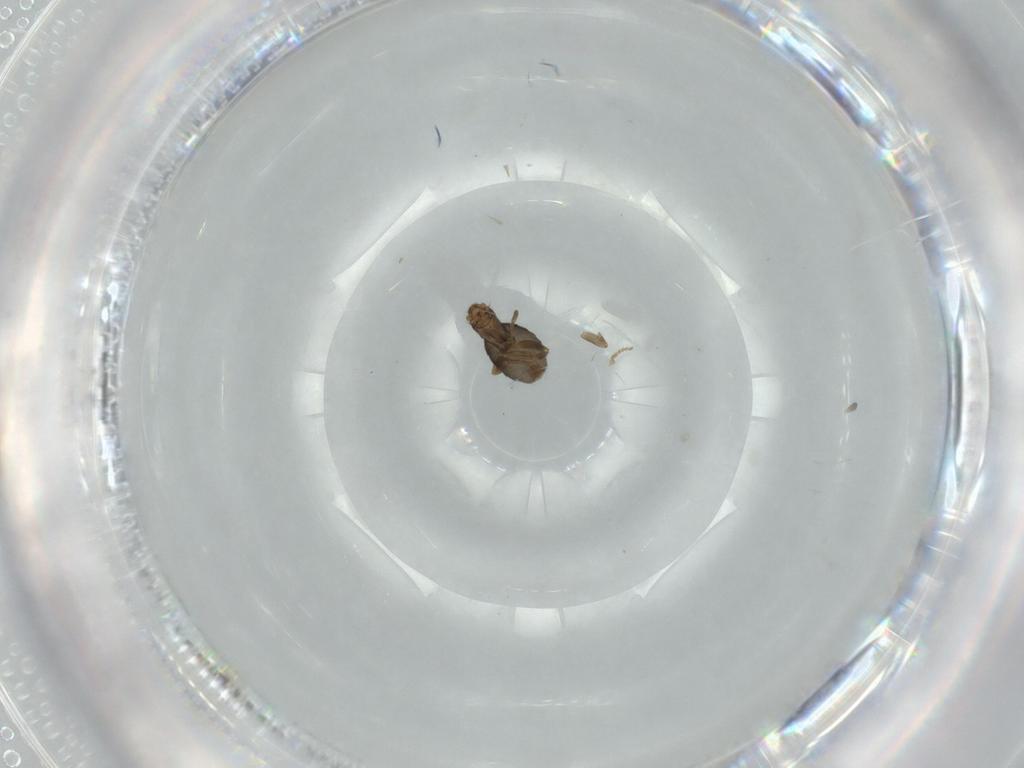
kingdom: Animalia
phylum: Arthropoda
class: Insecta
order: Diptera
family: Phoridae
